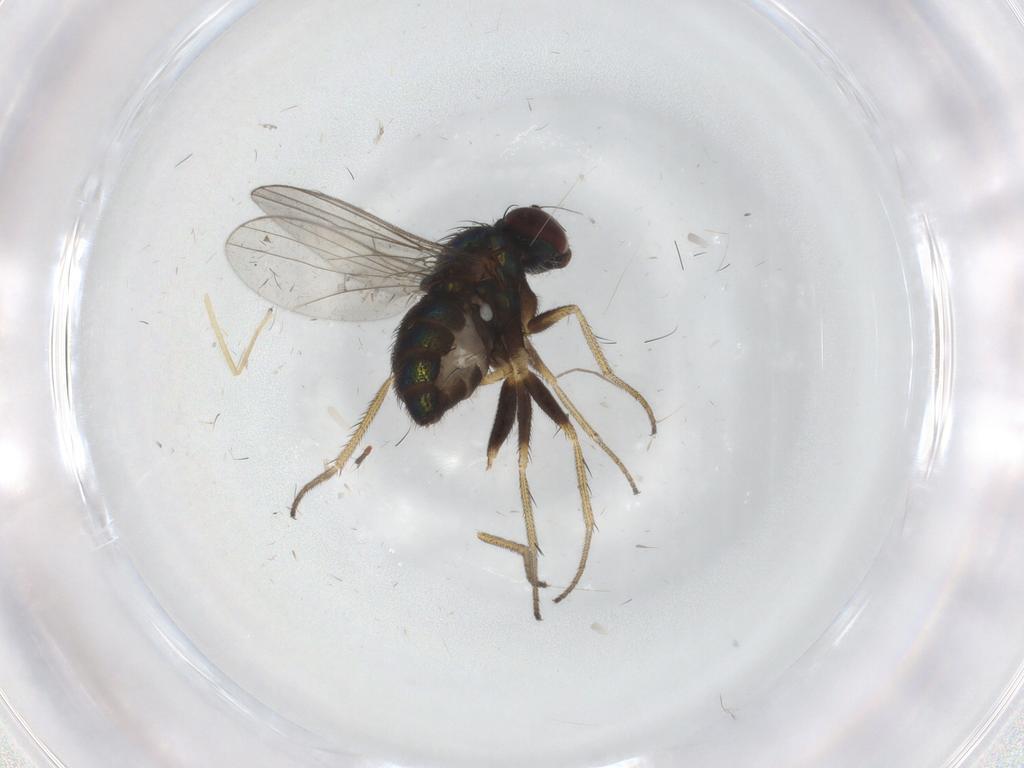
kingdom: Animalia
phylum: Arthropoda
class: Insecta
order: Diptera
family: Chironomidae
